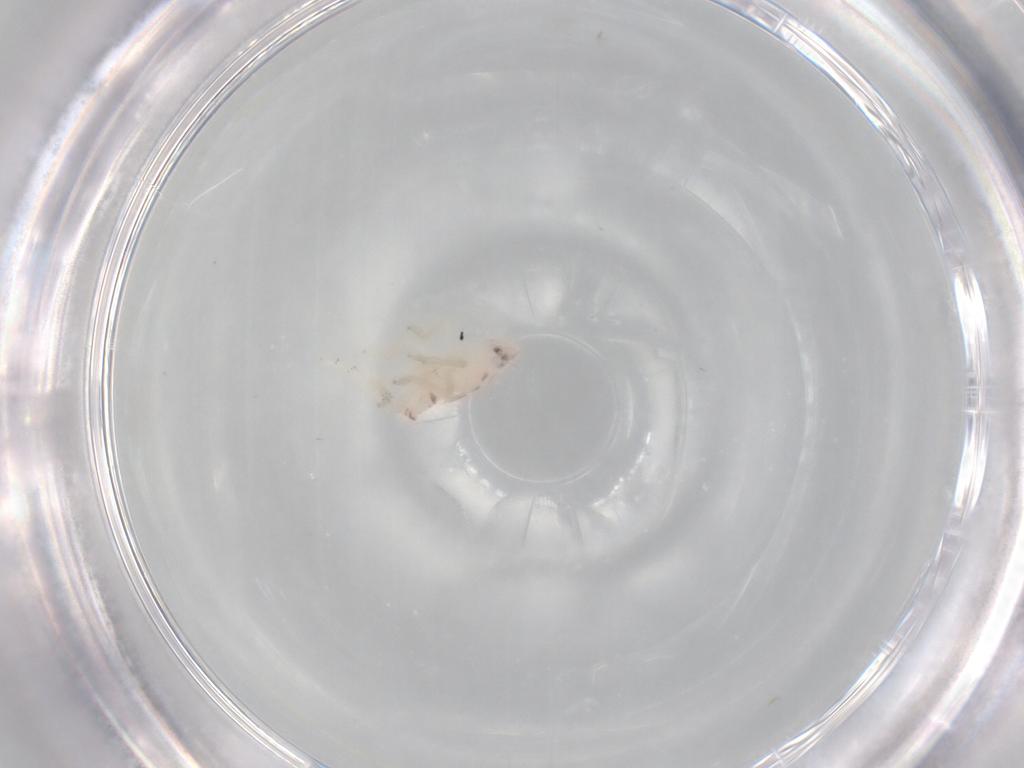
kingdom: Animalia
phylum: Arthropoda
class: Insecta
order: Hemiptera
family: Tropiduchidae
